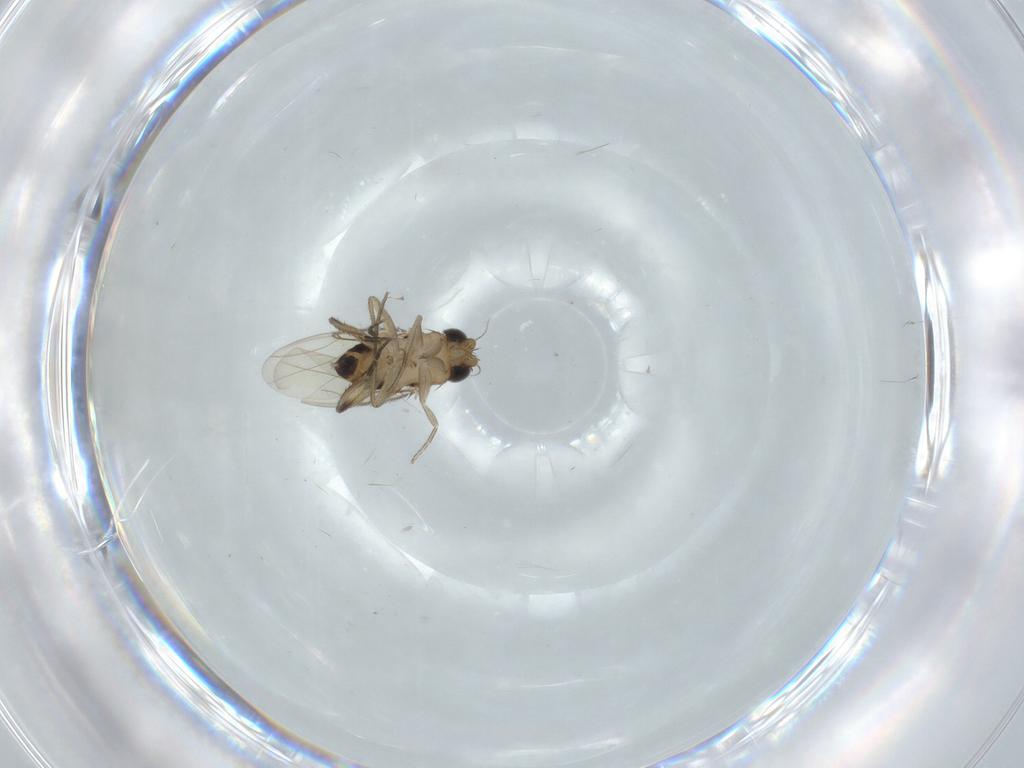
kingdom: Animalia
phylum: Arthropoda
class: Insecta
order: Diptera
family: Phoridae
